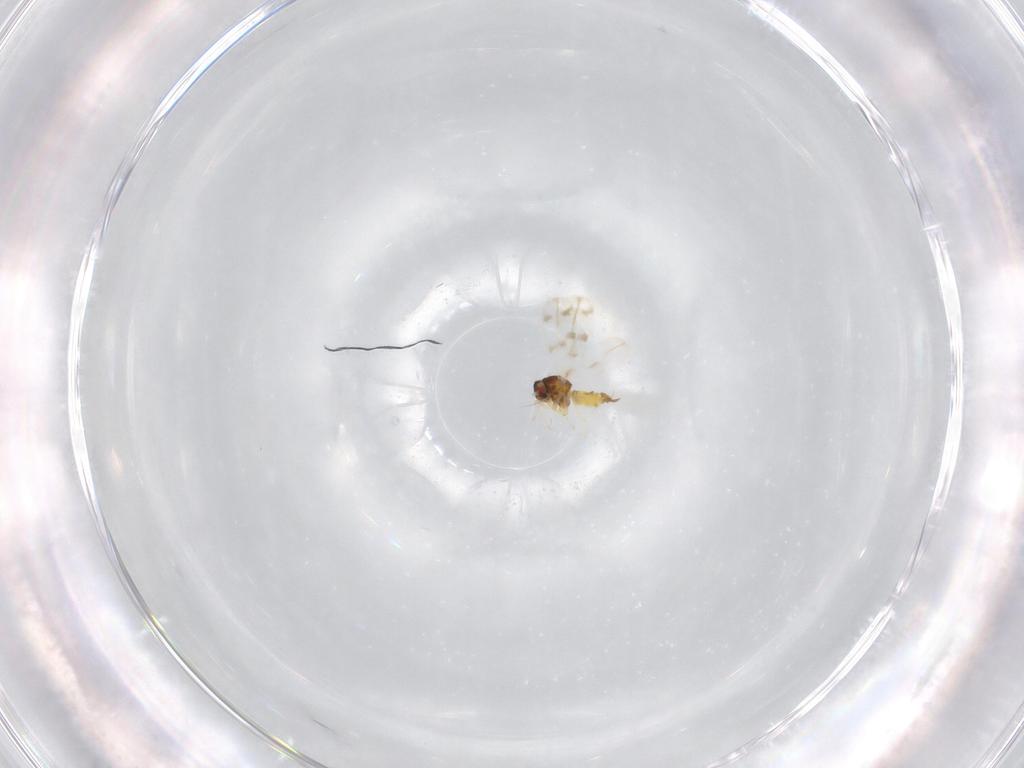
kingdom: Animalia
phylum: Arthropoda
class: Insecta
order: Hemiptera
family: Aleyrodidae
